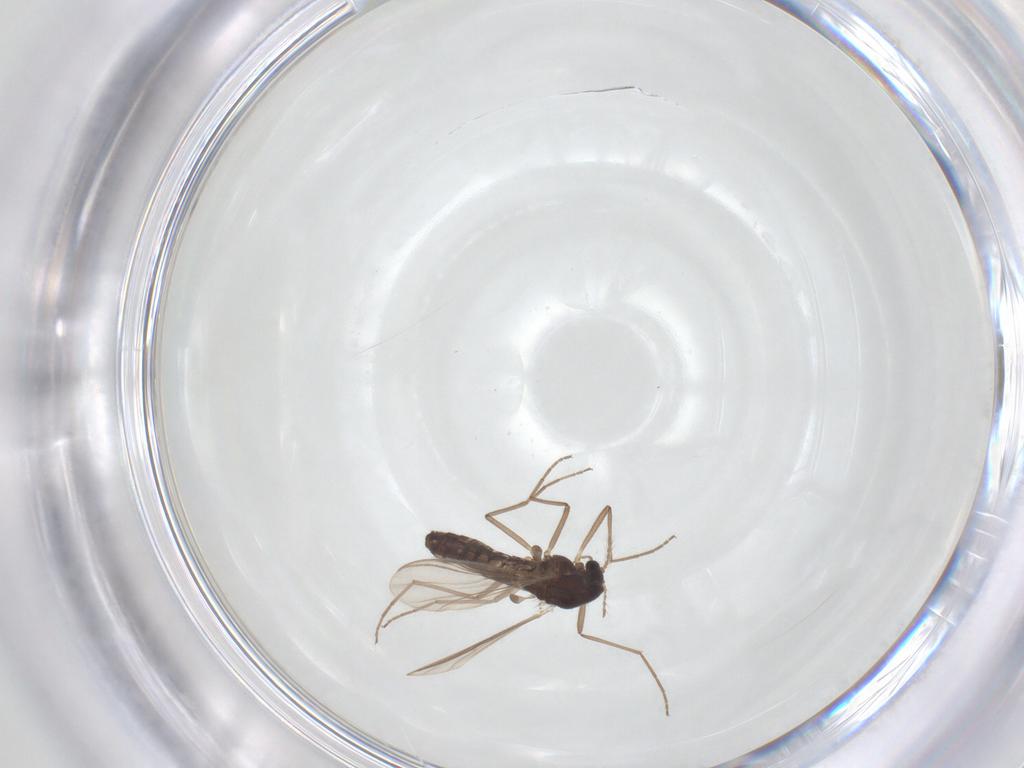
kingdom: Animalia
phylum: Arthropoda
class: Insecta
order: Diptera
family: Chironomidae
